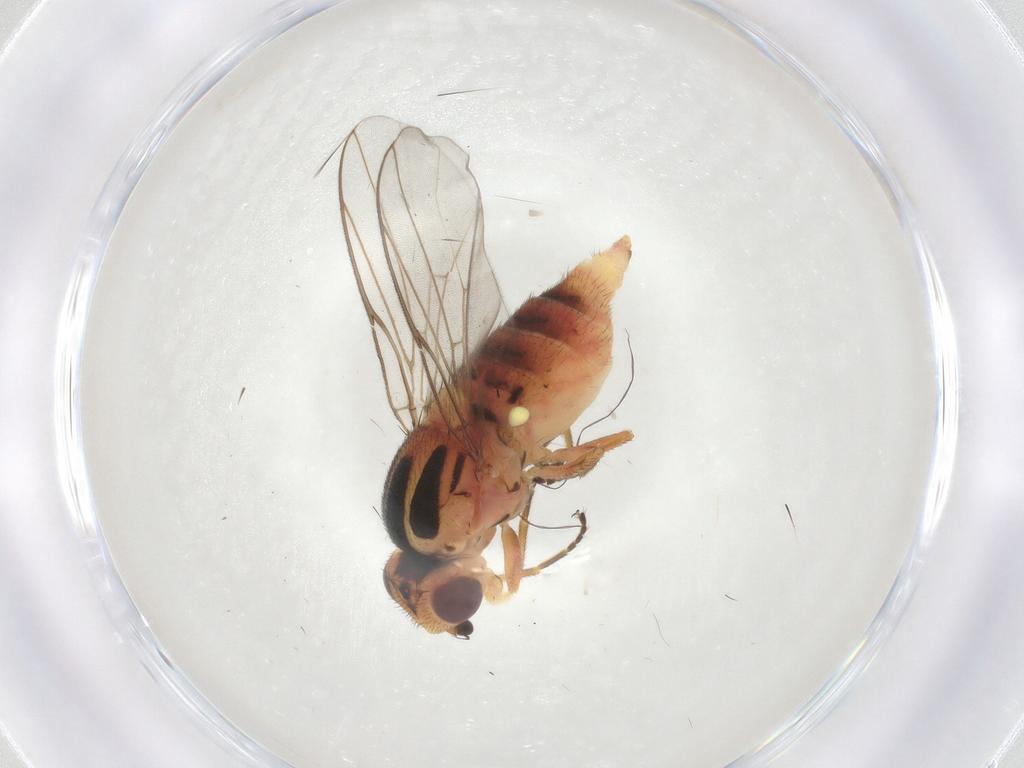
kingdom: Animalia
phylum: Arthropoda
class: Insecta
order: Diptera
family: Chloropidae
